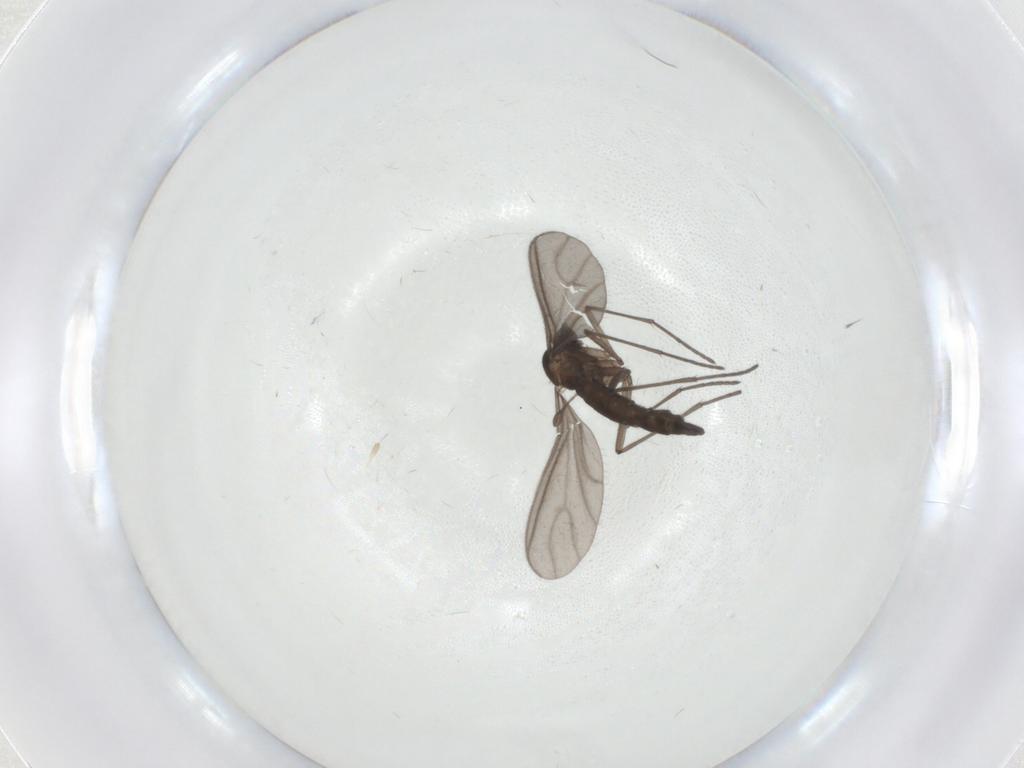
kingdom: Animalia
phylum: Arthropoda
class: Insecta
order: Diptera
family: Sciaridae
